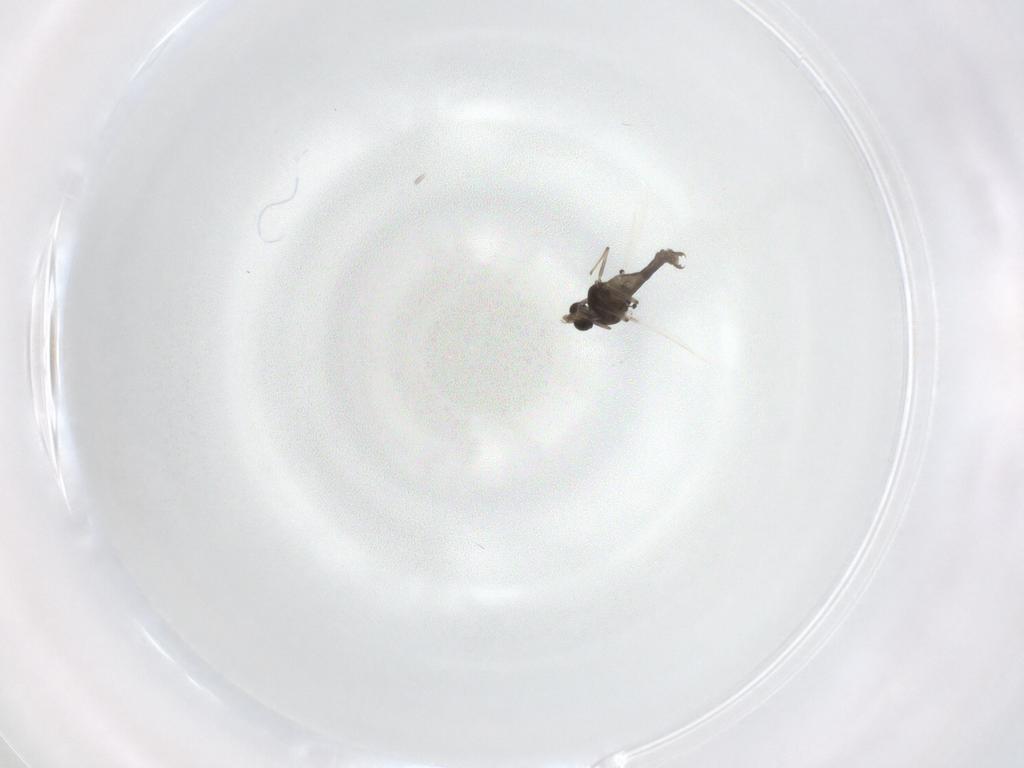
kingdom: Animalia
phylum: Arthropoda
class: Insecta
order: Diptera
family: Chironomidae
